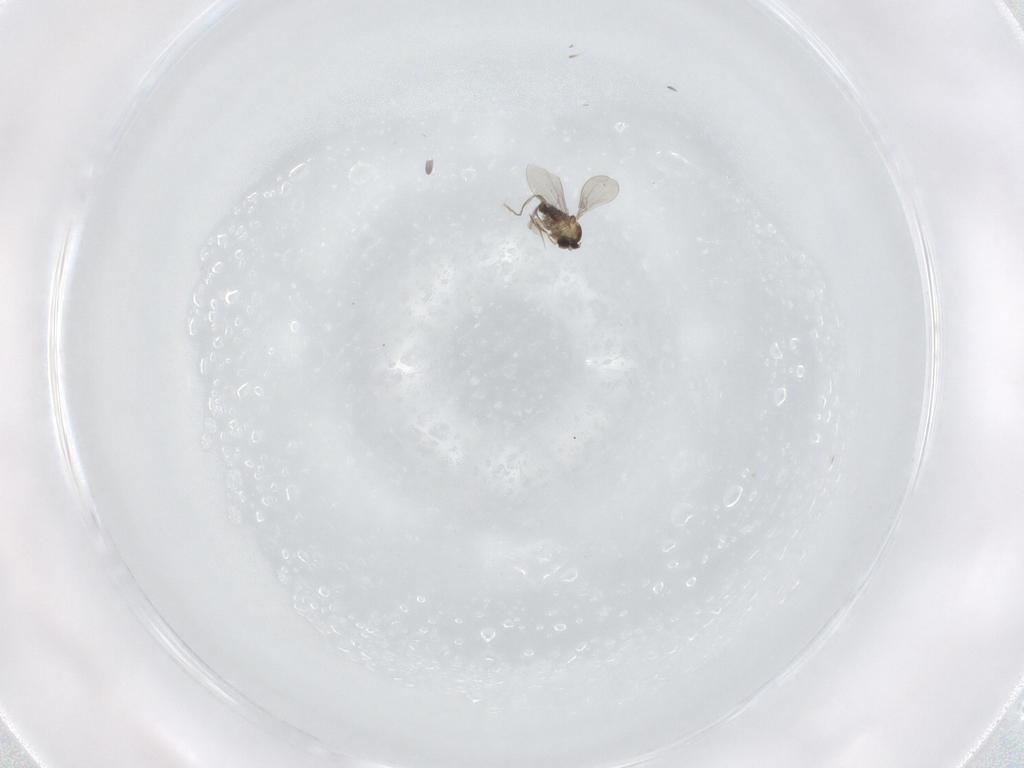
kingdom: Animalia
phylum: Arthropoda
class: Insecta
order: Diptera
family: Cecidomyiidae
